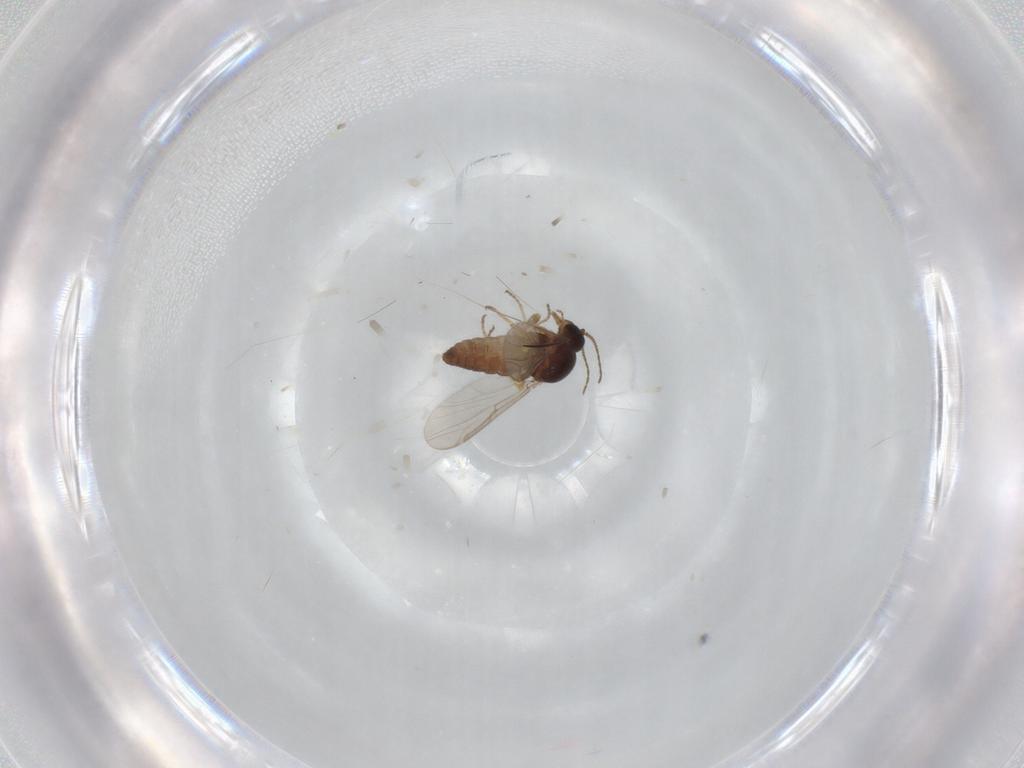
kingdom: Animalia
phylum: Arthropoda
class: Insecta
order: Diptera
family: Ceratopogonidae
